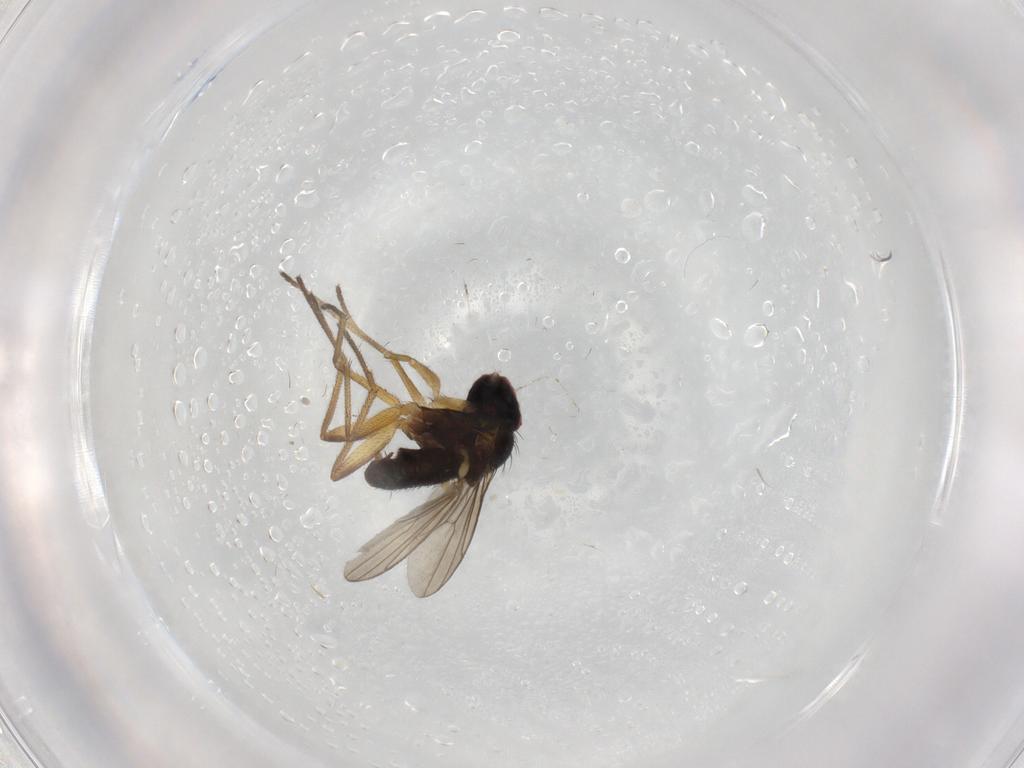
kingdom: Animalia
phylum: Arthropoda
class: Insecta
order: Diptera
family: Dolichopodidae
